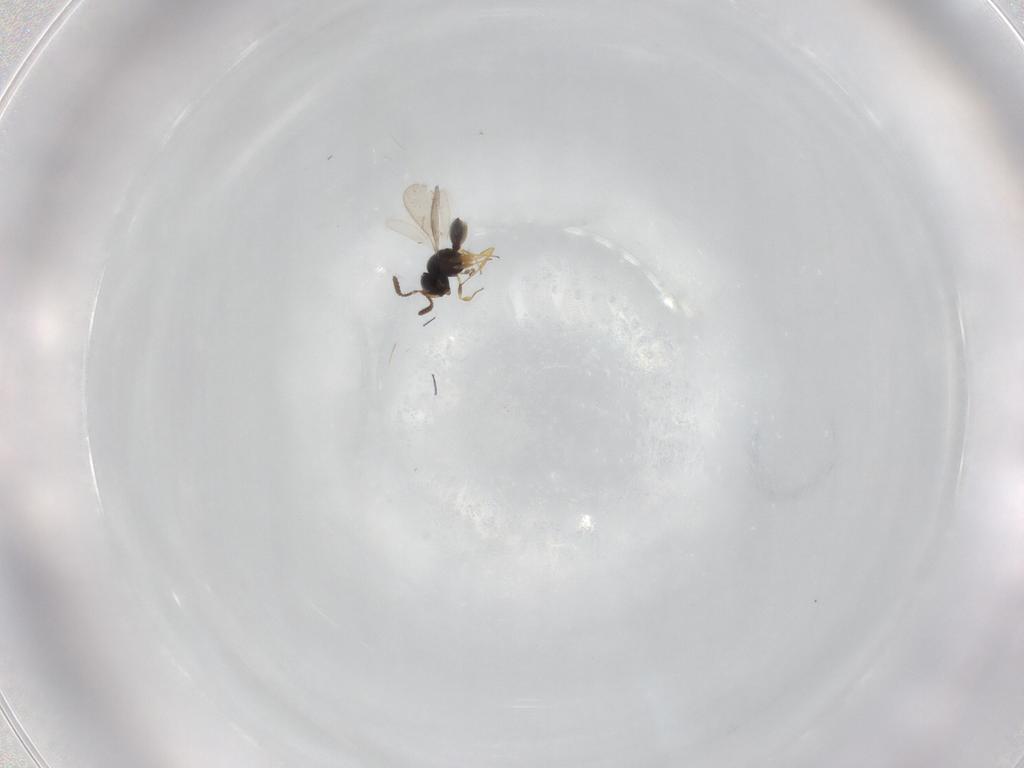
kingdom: Animalia
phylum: Arthropoda
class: Insecta
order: Hymenoptera
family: Scelionidae
